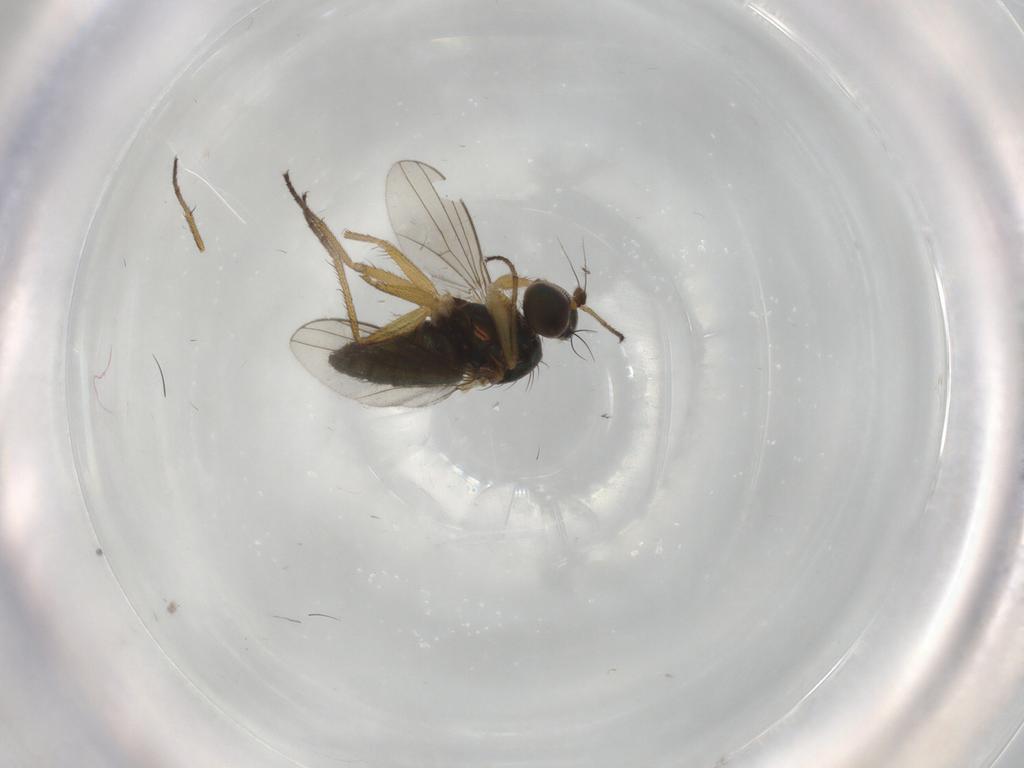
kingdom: Animalia
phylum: Arthropoda
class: Insecta
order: Diptera
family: Dolichopodidae
